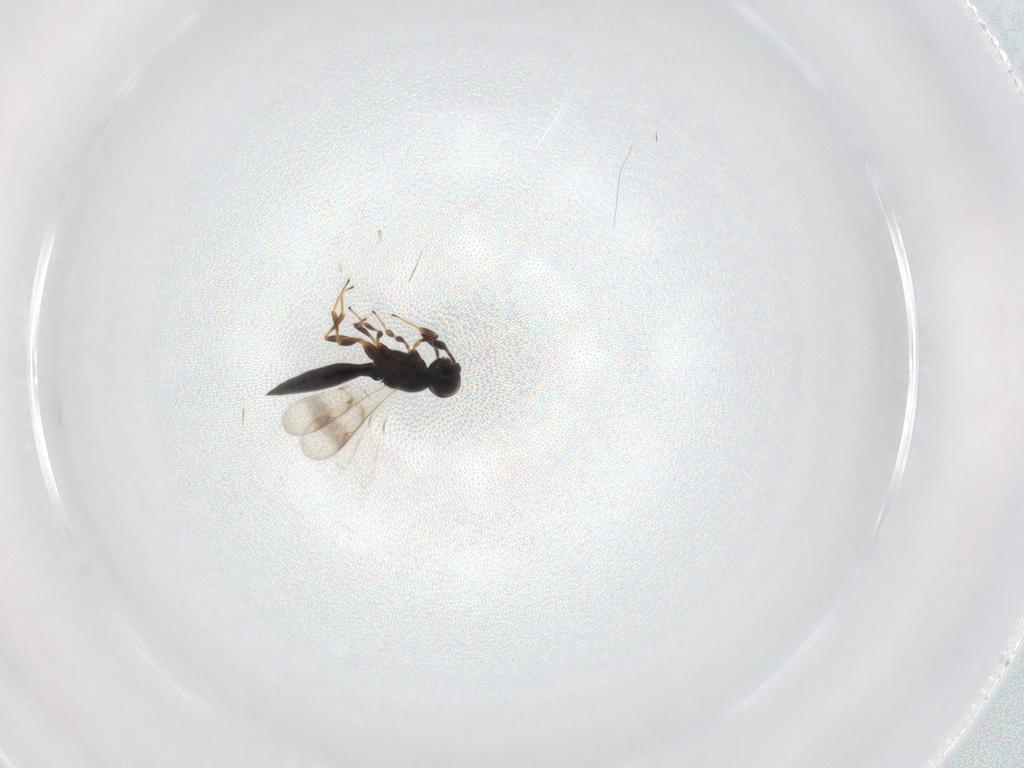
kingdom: Animalia
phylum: Arthropoda
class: Insecta
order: Hymenoptera
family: Scelionidae
